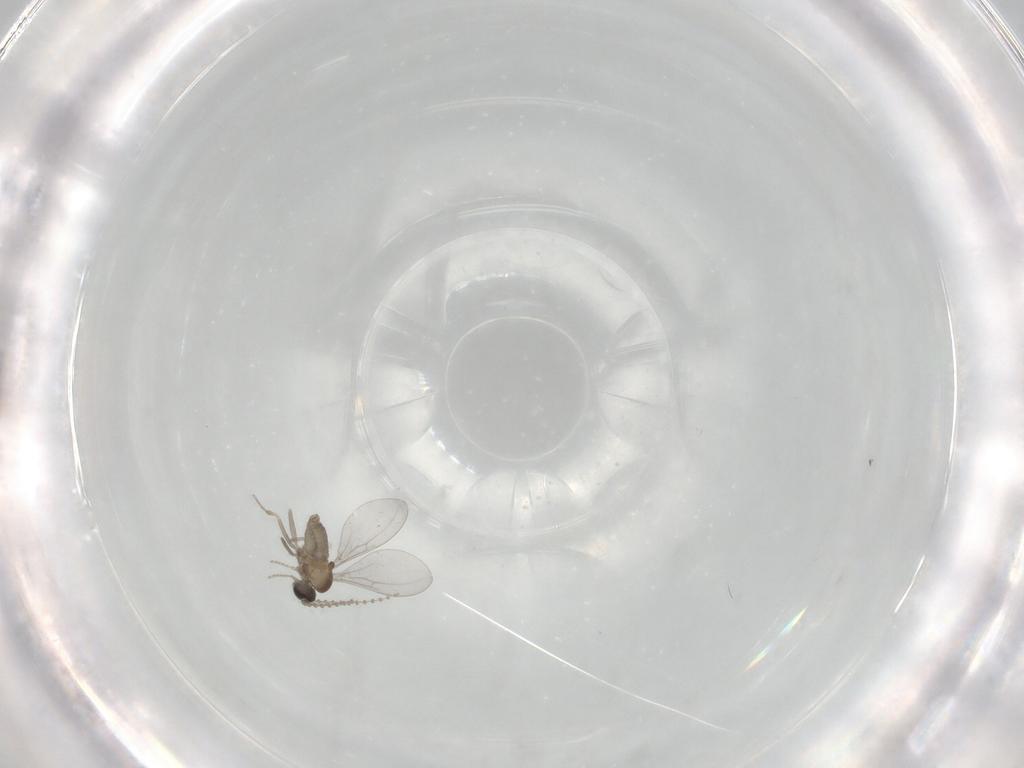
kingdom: Animalia
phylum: Arthropoda
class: Insecta
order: Diptera
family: Cecidomyiidae
